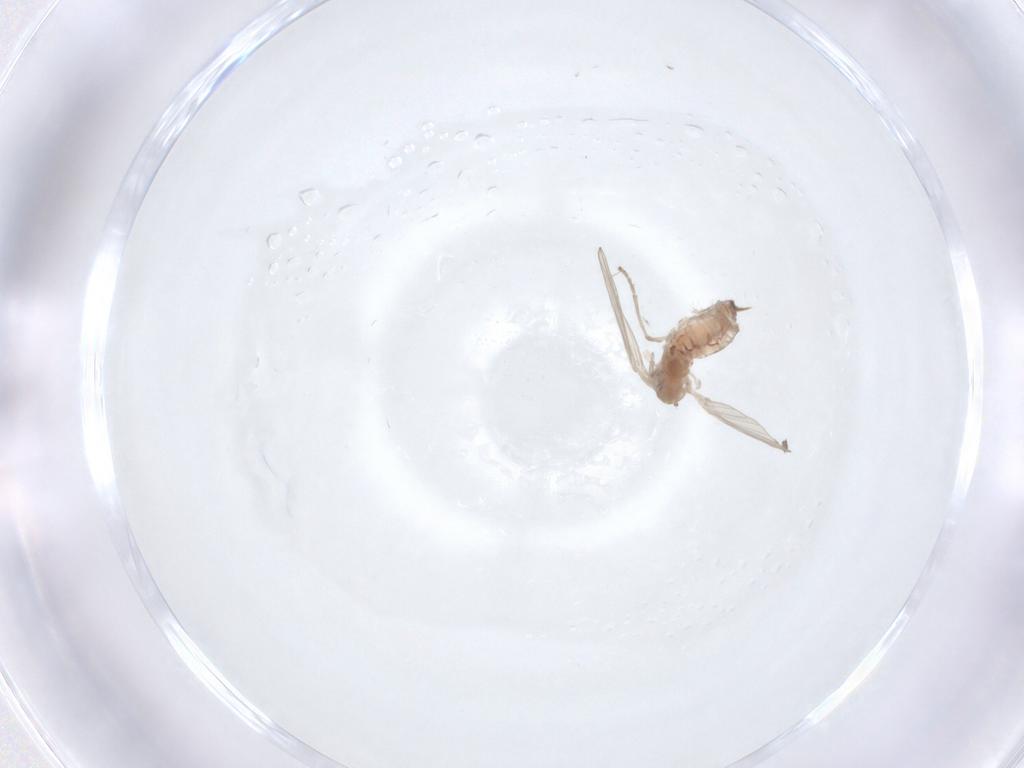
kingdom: Animalia
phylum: Arthropoda
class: Insecta
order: Diptera
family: Psychodidae
